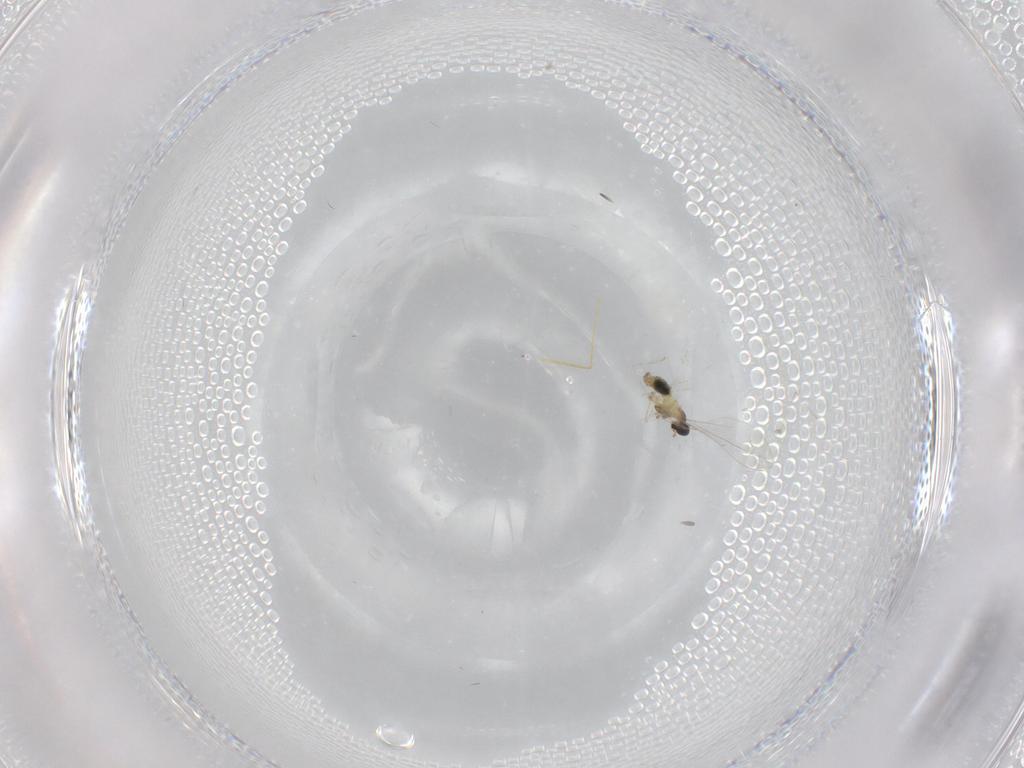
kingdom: Animalia
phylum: Arthropoda
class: Insecta
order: Diptera
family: Cecidomyiidae
